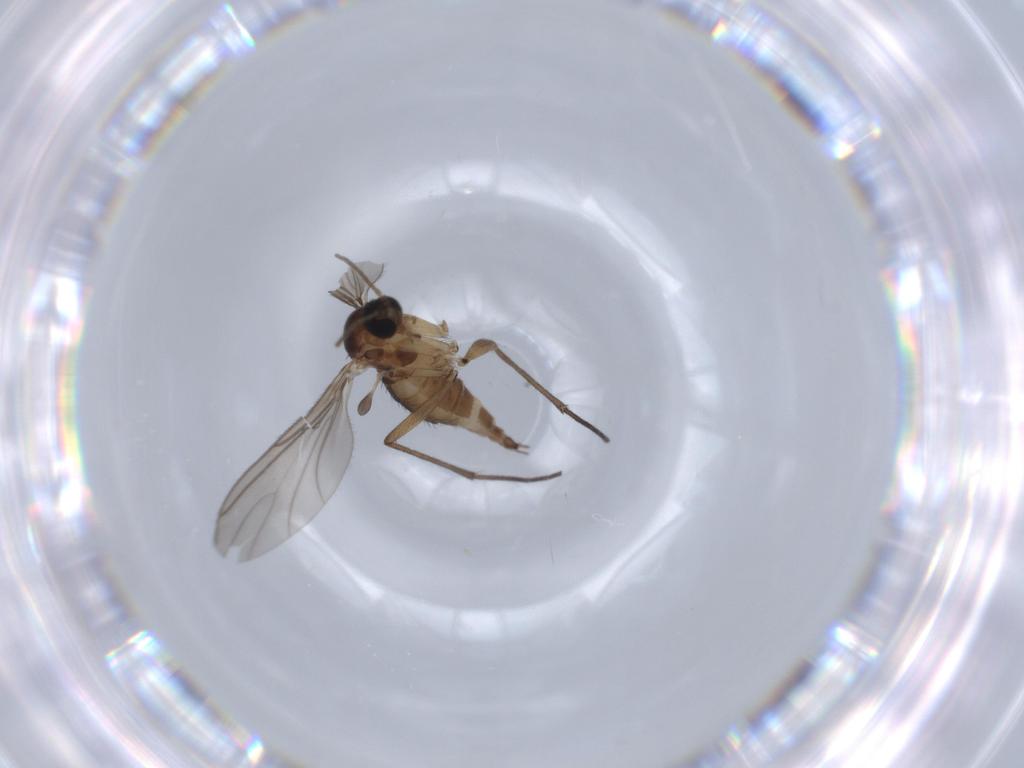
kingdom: Animalia
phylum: Arthropoda
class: Insecta
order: Diptera
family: Sciaridae
